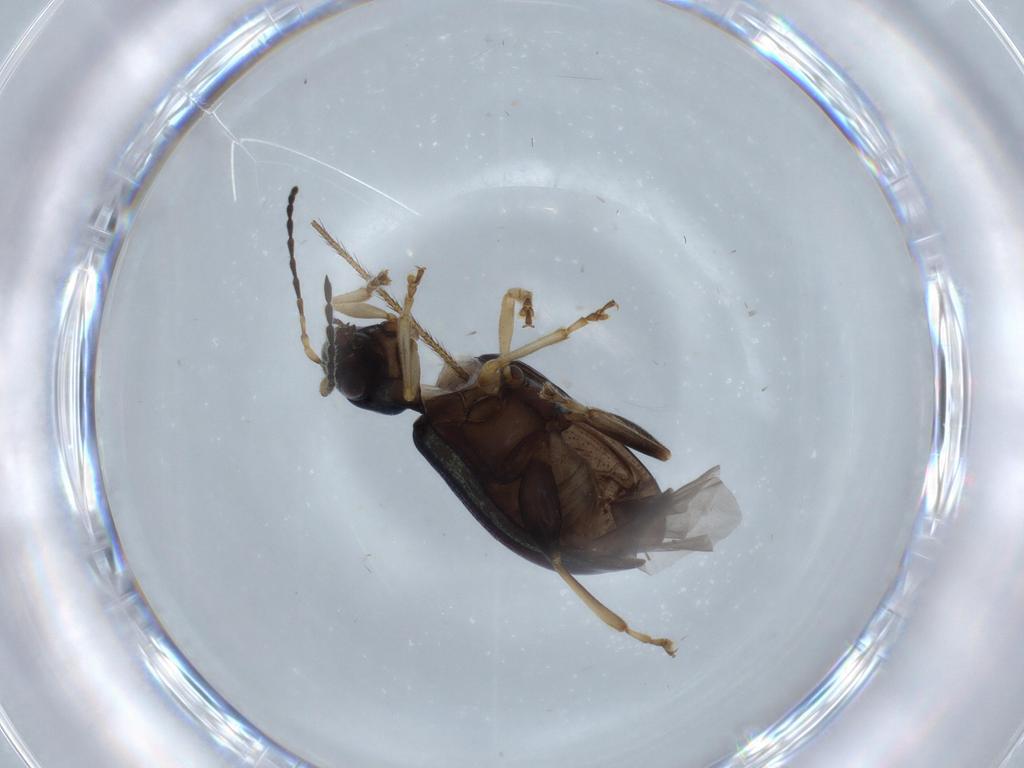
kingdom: Animalia
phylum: Arthropoda
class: Insecta
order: Coleoptera
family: Chrysomelidae
